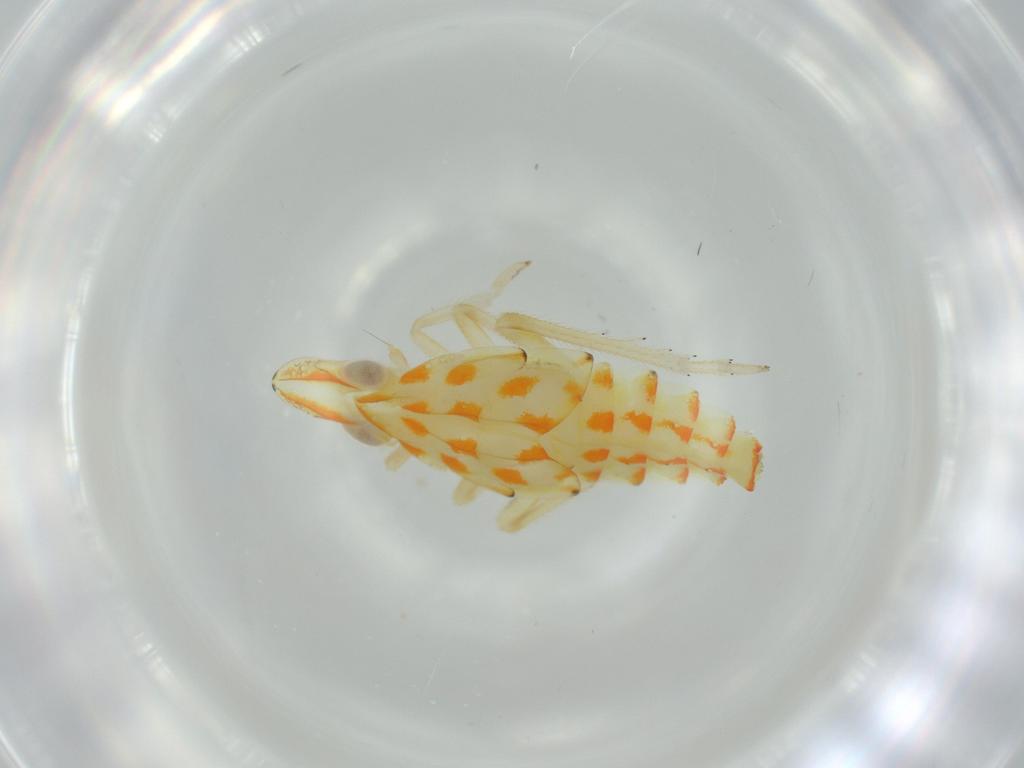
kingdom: Animalia
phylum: Arthropoda
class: Insecta
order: Hemiptera
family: Tropiduchidae
